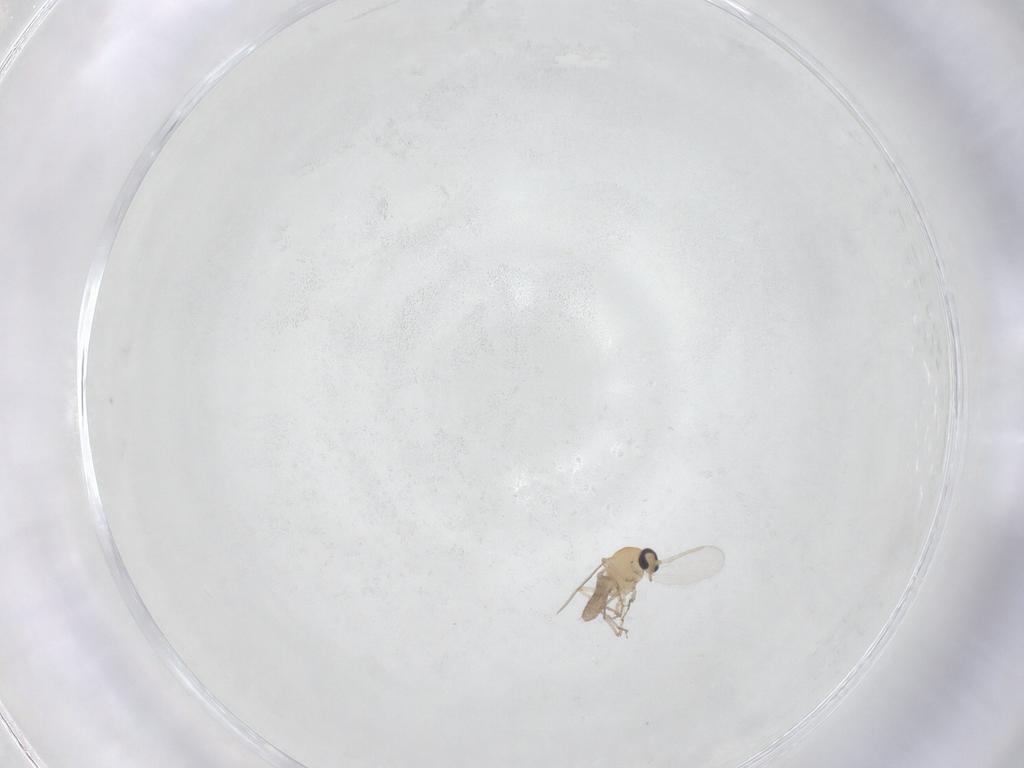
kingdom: Animalia
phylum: Arthropoda
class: Insecta
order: Diptera
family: Ceratopogonidae
